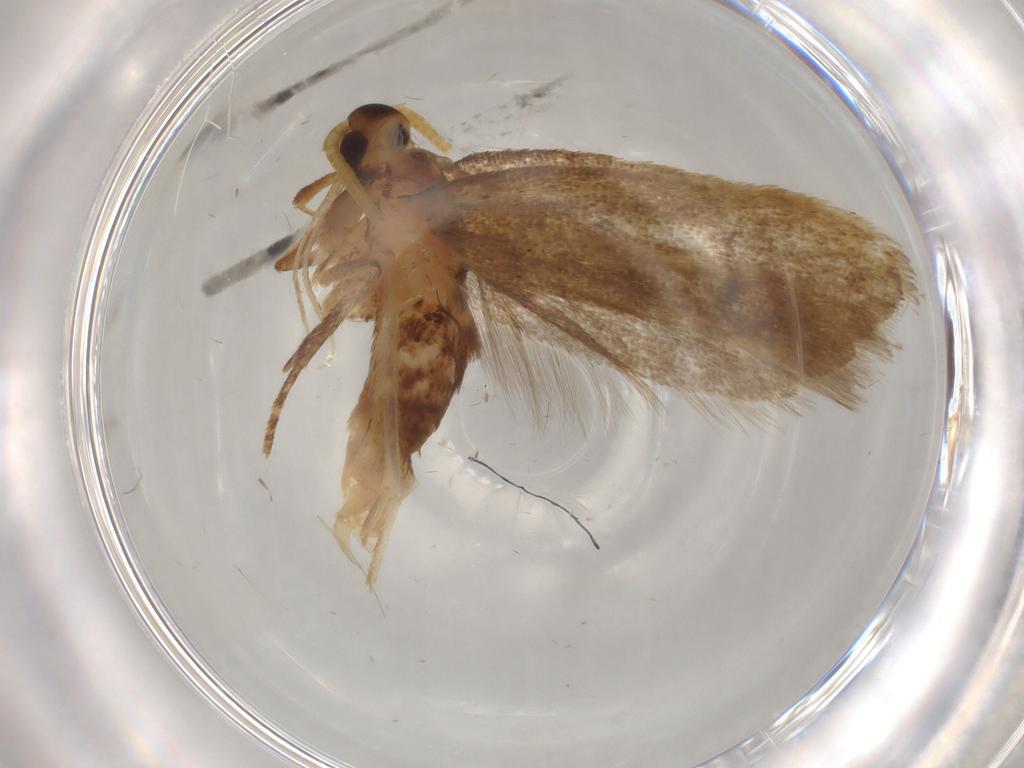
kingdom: Animalia
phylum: Arthropoda
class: Insecta
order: Lepidoptera
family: Lecithoceridae
